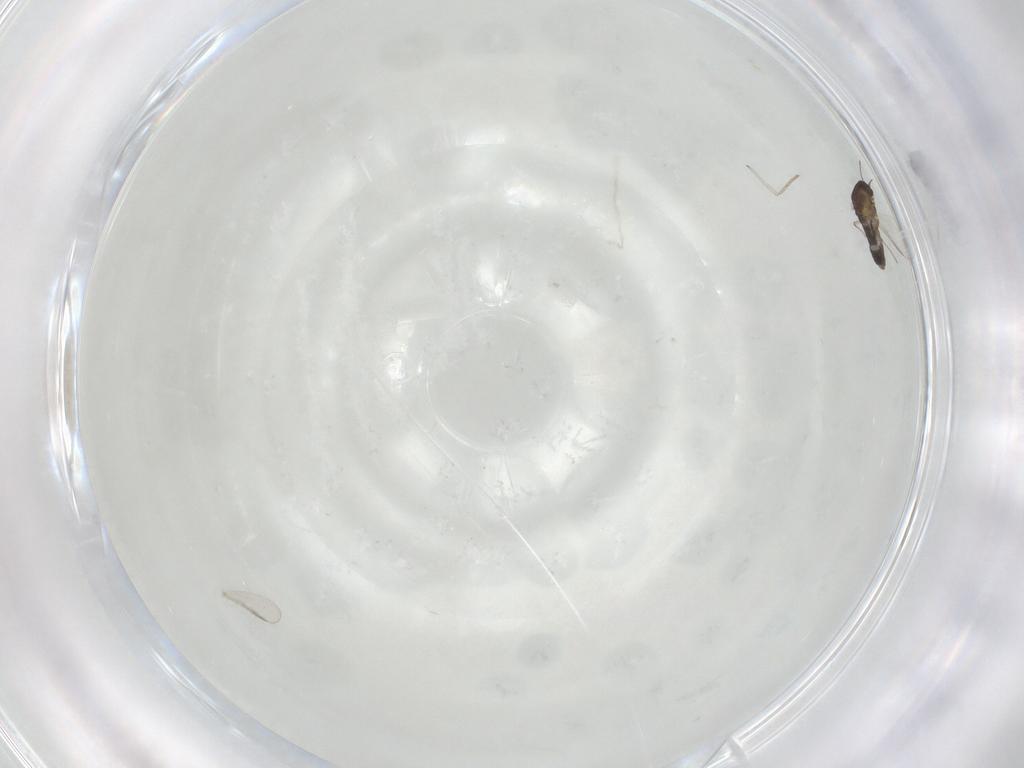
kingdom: Animalia
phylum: Arthropoda
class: Insecta
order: Diptera
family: Chironomidae
